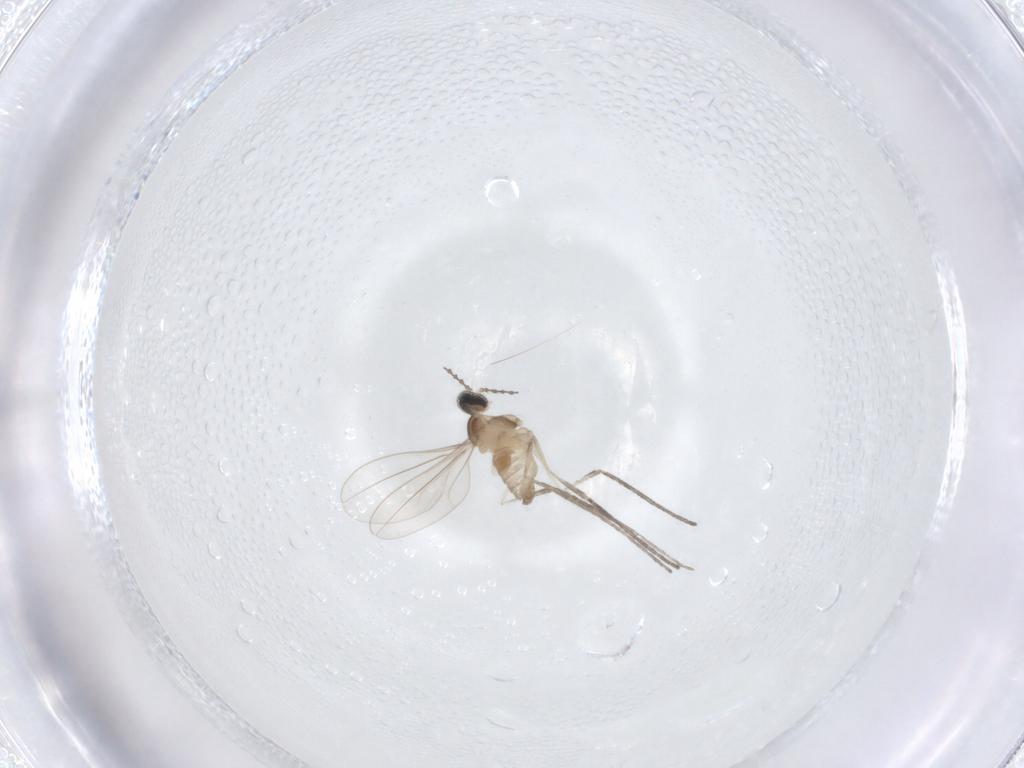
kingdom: Animalia
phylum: Arthropoda
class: Insecta
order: Diptera
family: Cecidomyiidae
